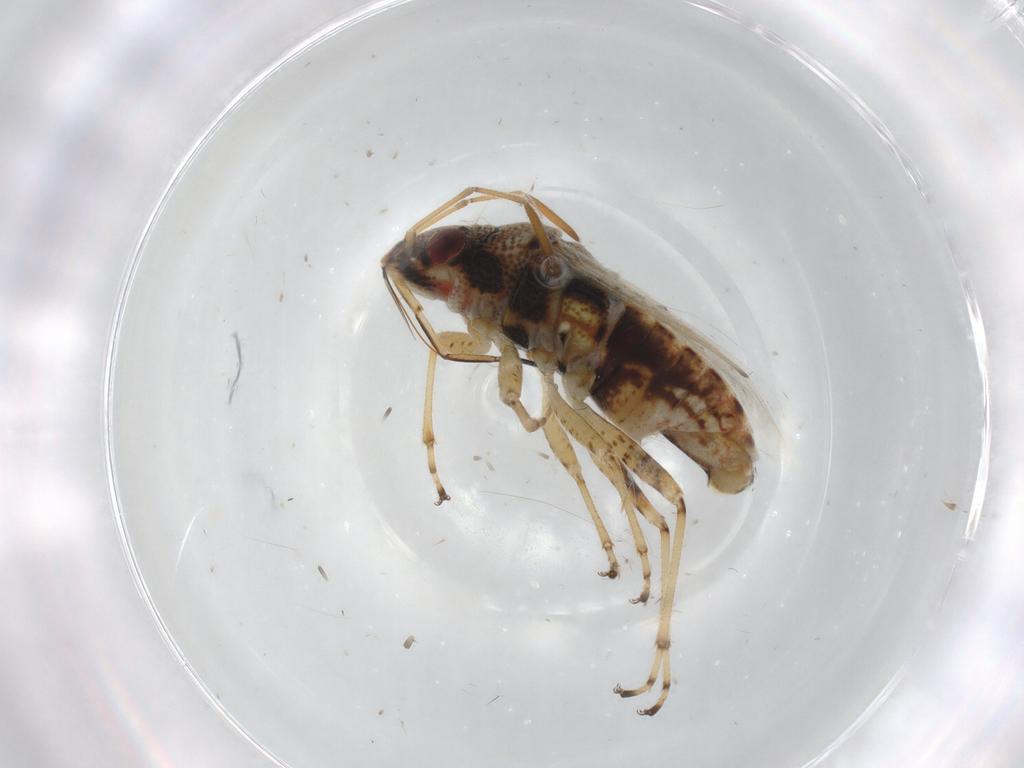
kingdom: Animalia
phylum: Arthropoda
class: Insecta
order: Hemiptera
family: Lygaeidae
